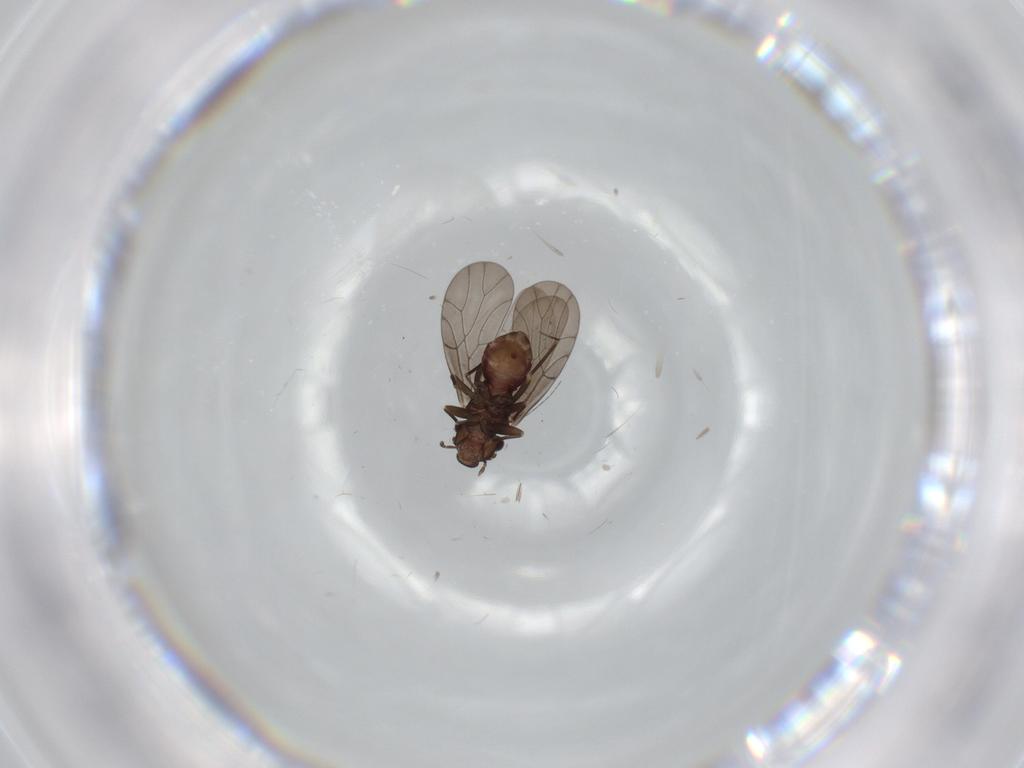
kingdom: Animalia
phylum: Arthropoda
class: Insecta
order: Psocodea
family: Lepidopsocidae
